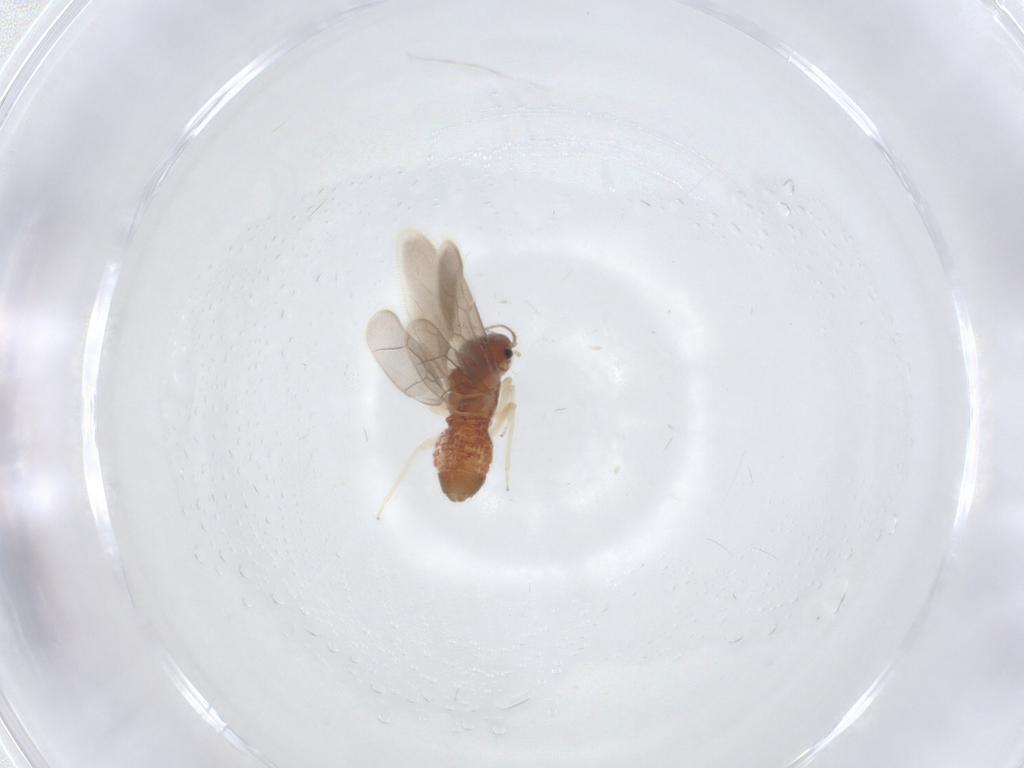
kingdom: Animalia
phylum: Arthropoda
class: Insecta
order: Psocodea
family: Archipsocidae
